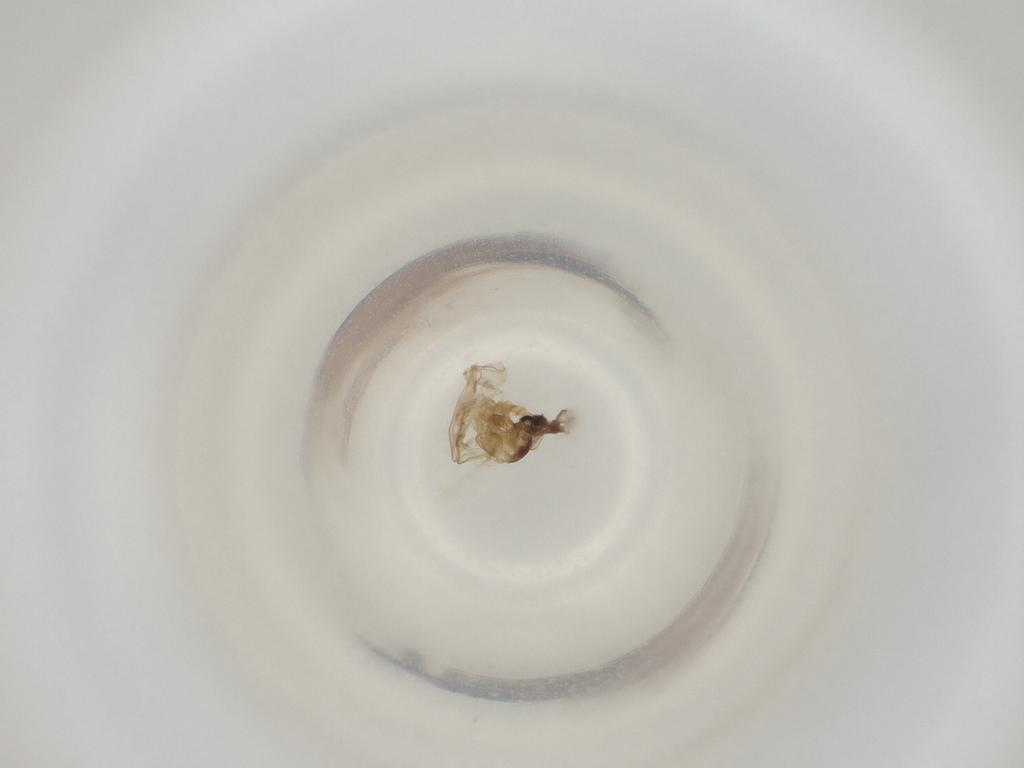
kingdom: Animalia
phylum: Arthropoda
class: Insecta
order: Diptera
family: Cecidomyiidae
